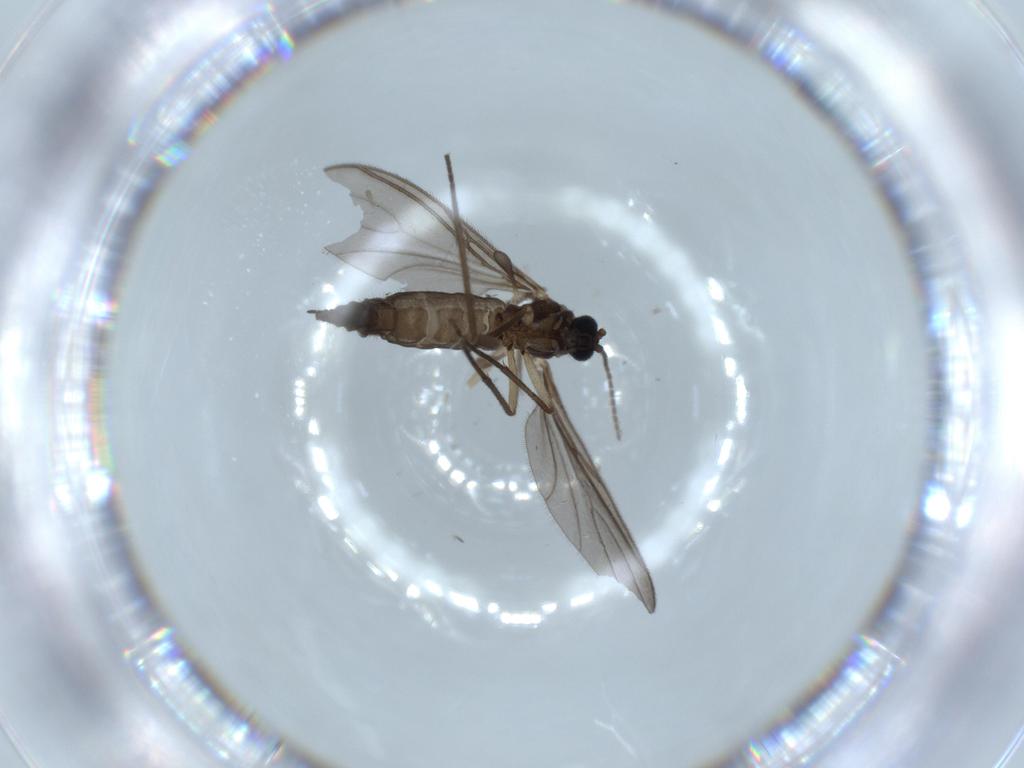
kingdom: Animalia
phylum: Arthropoda
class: Insecta
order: Diptera
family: Sciaridae
